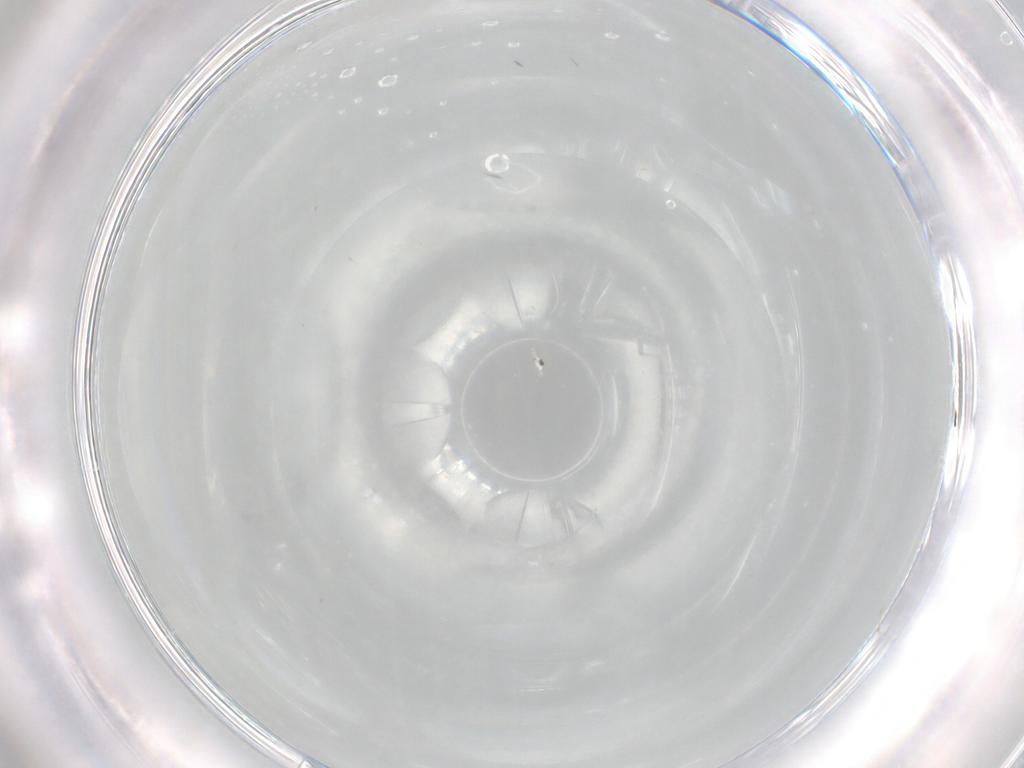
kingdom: Animalia
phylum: Arthropoda
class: Insecta
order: Diptera
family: Cecidomyiidae
